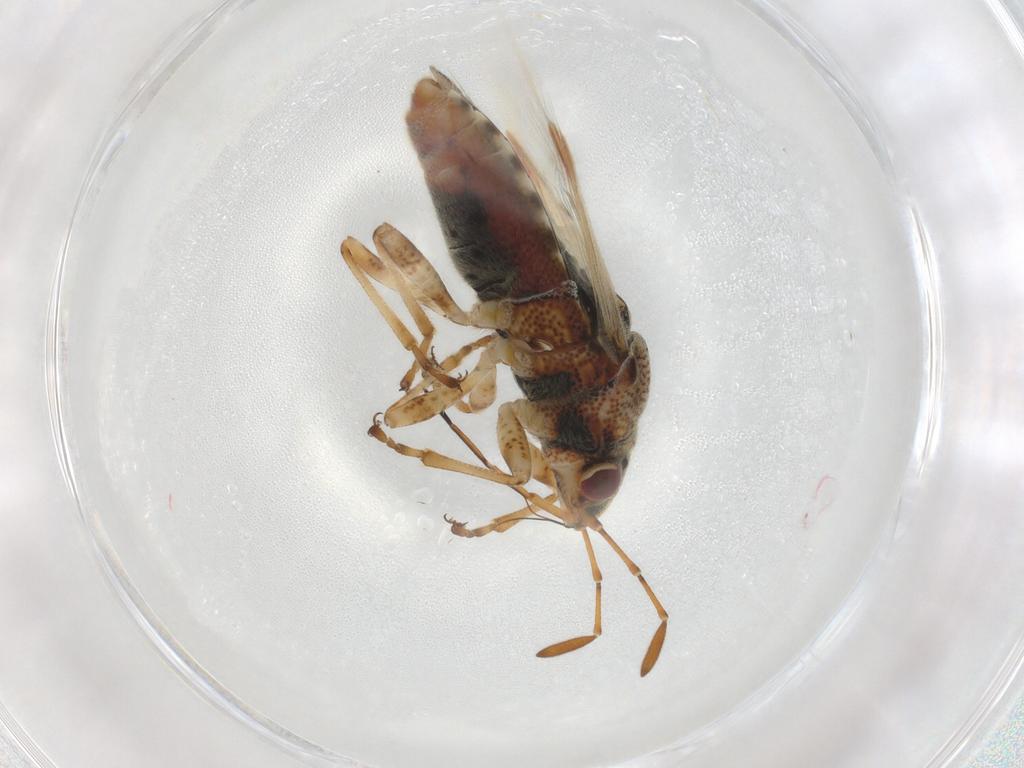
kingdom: Animalia
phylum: Arthropoda
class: Insecta
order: Hemiptera
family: Lygaeidae
